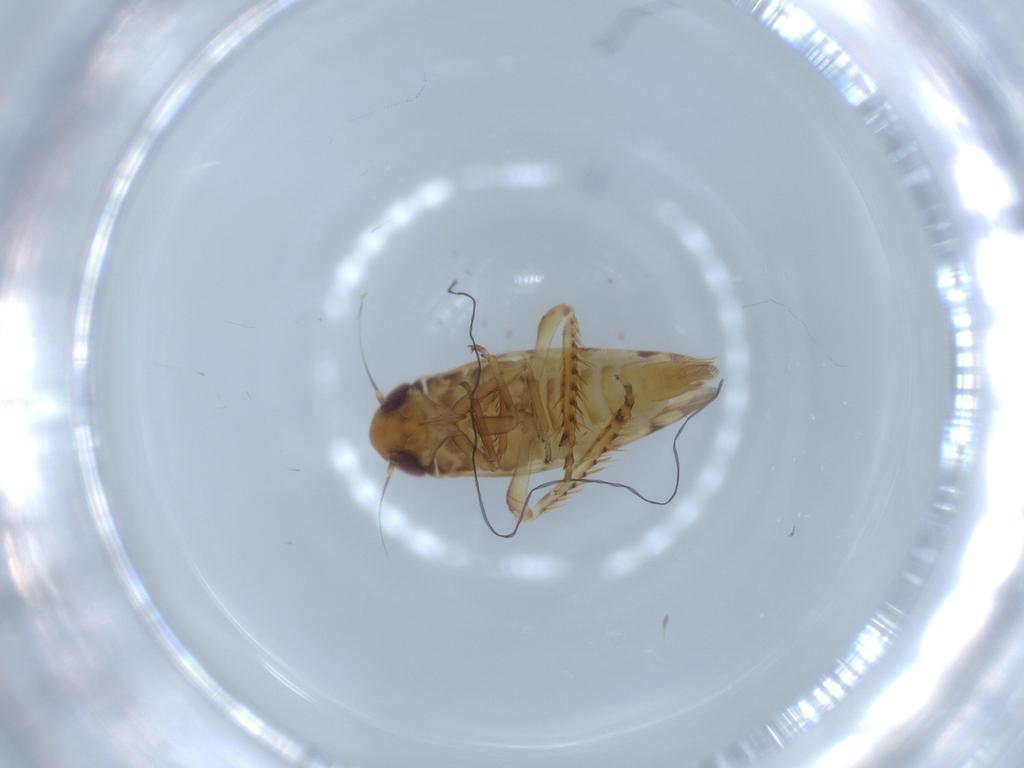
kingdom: Animalia
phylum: Arthropoda
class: Insecta
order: Hemiptera
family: Cicadellidae
